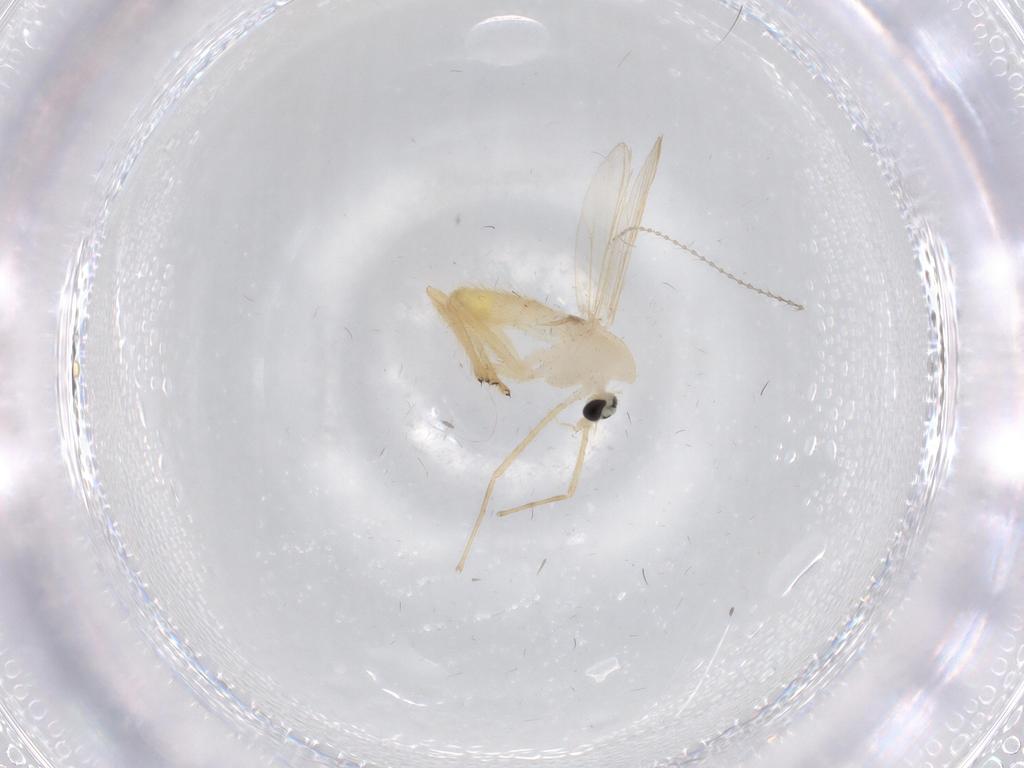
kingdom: Animalia
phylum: Arthropoda
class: Insecta
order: Diptera
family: Chironomidae
